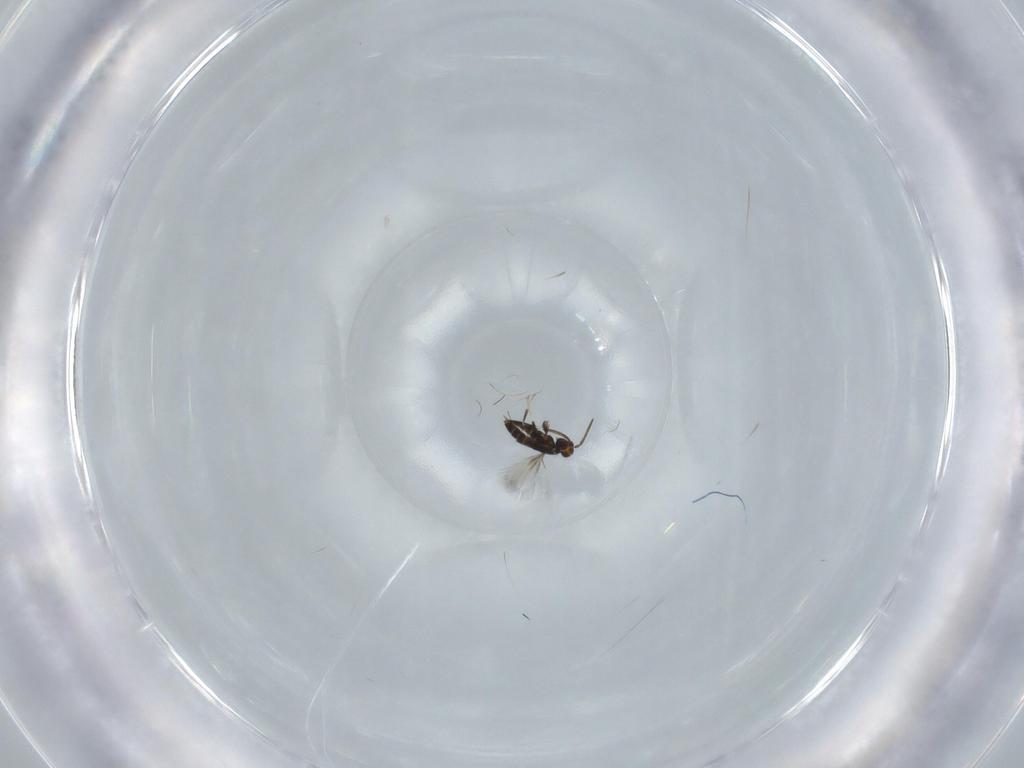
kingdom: Animalia
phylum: Arthropoda
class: Insecta
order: Hymenoptera
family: Signiphoridae
